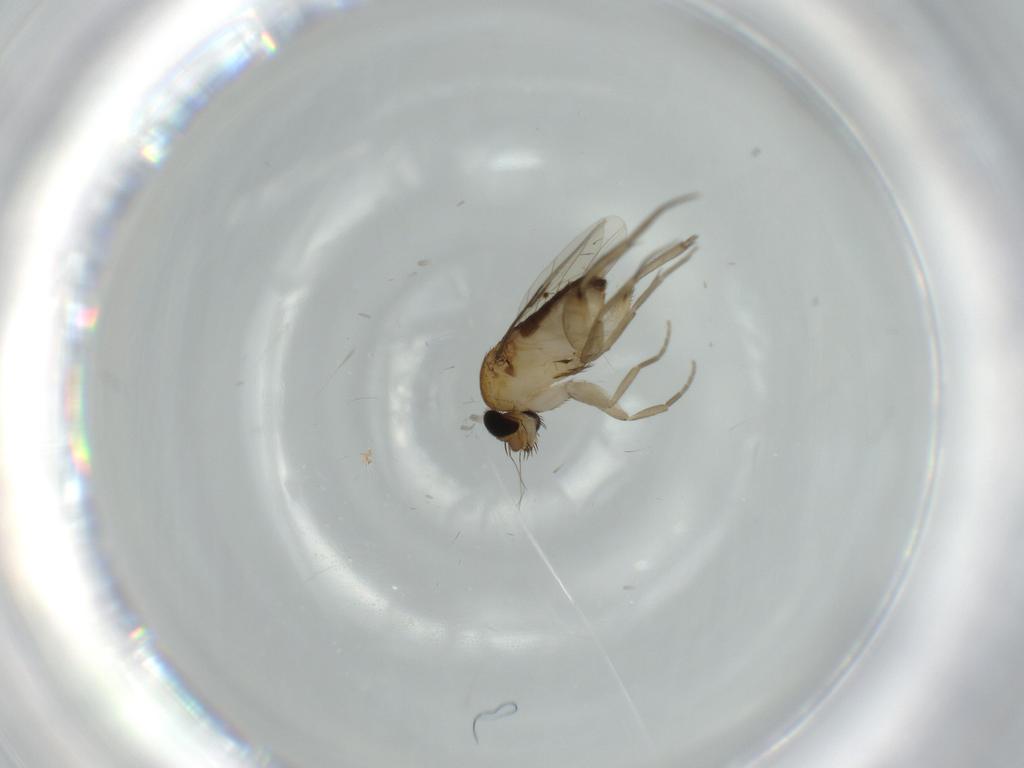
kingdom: Animalia
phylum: Arthropoda
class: Insecta
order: Diptera
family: Phoridae
